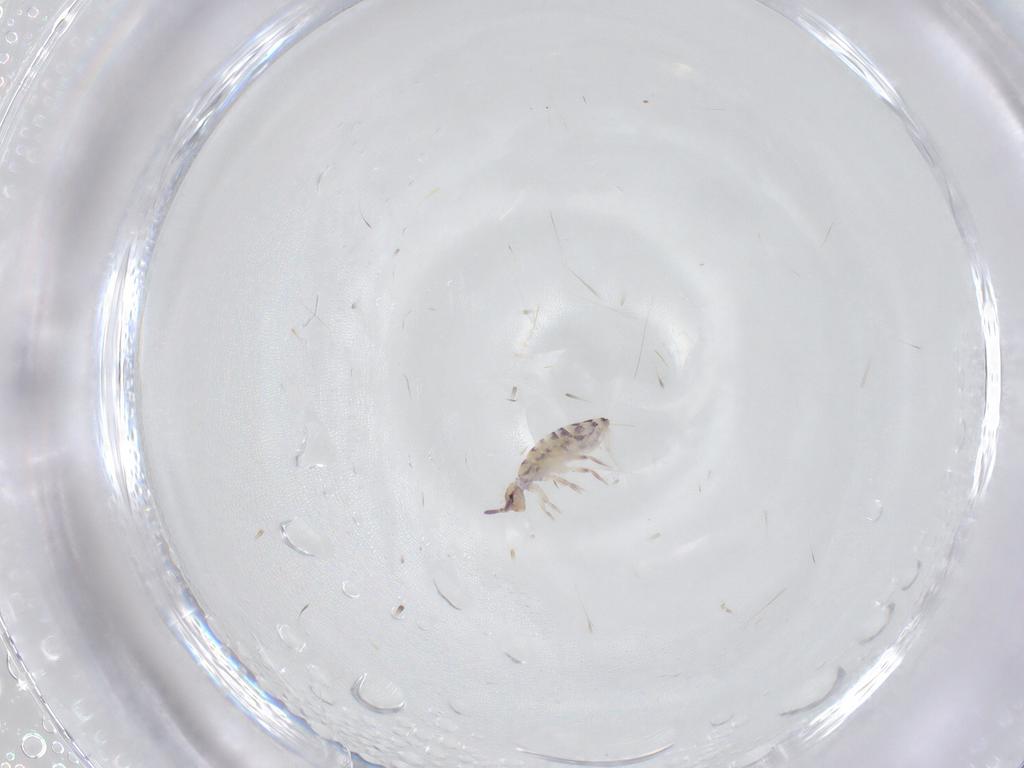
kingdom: Animalia
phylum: Arthropoda
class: Collembola
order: Entomobryomorpha
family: Entomobryidae
